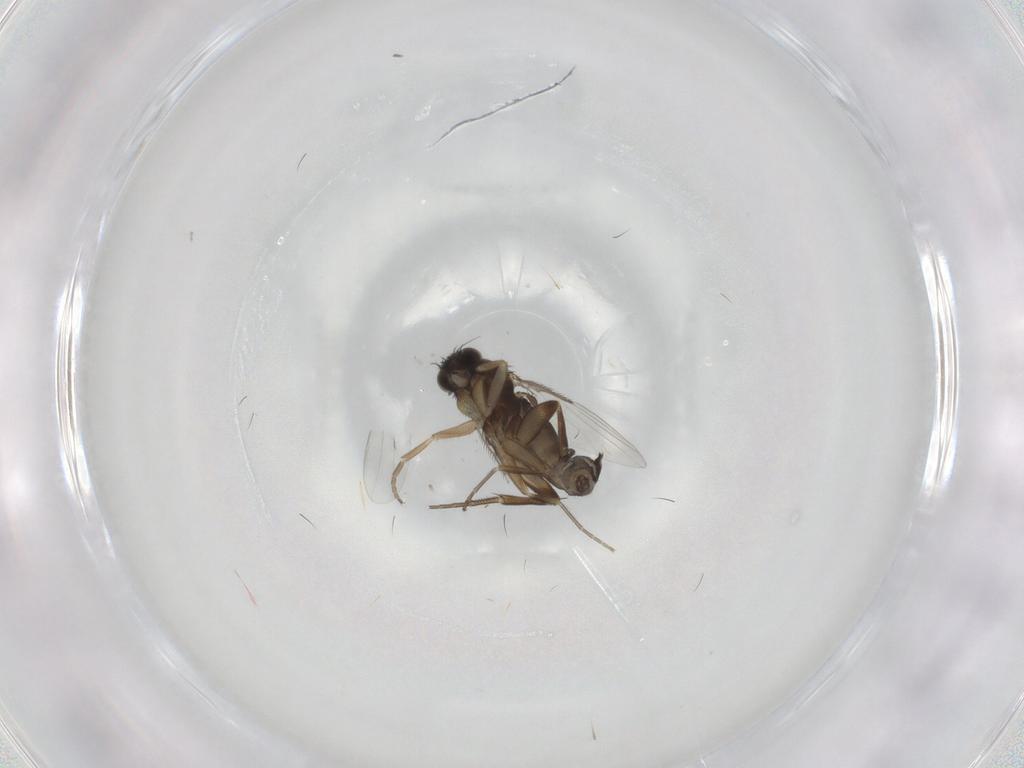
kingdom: Animalia
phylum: Arthropoda
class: Insecta
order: Diptera
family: Phoridae
